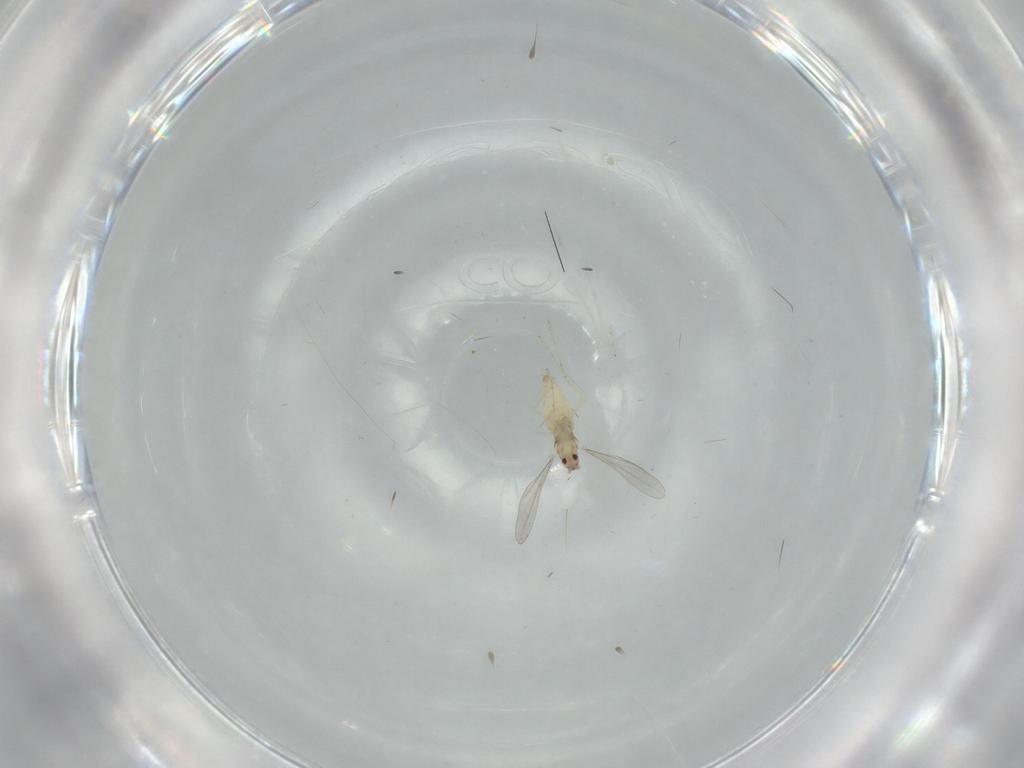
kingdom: Animalia
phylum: Arthropoda
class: Insecta
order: Diptera
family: Cecidomyiidae
